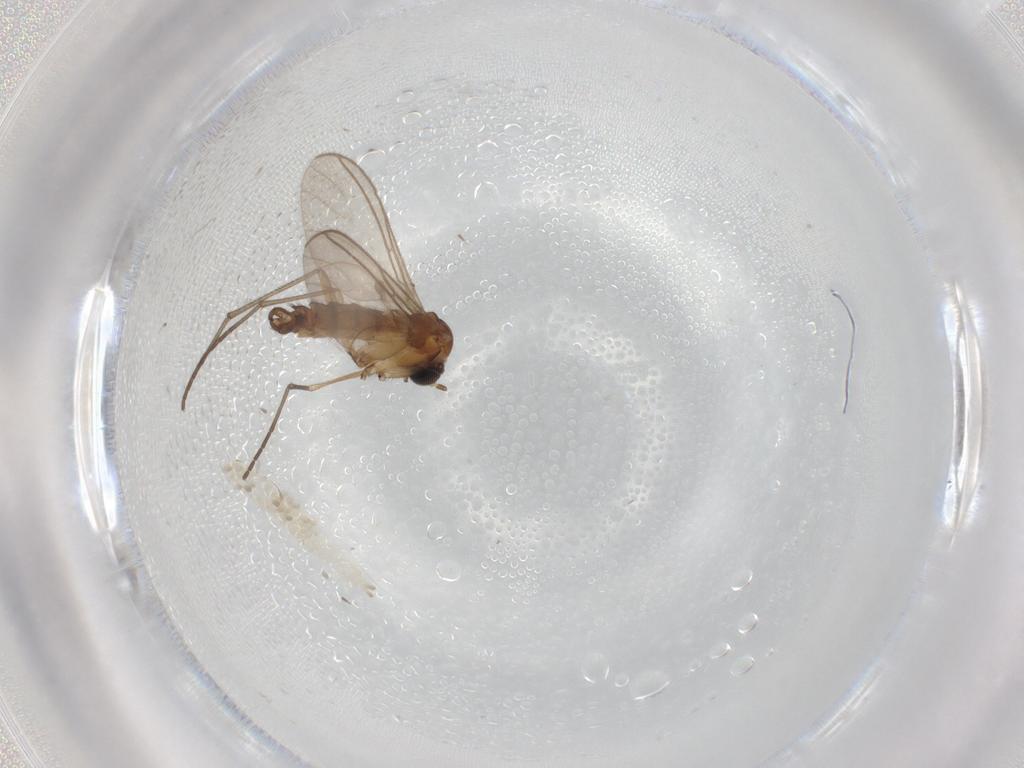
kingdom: Animalia
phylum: Arthropoda
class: Insecta
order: Diptera
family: Sciaridae
